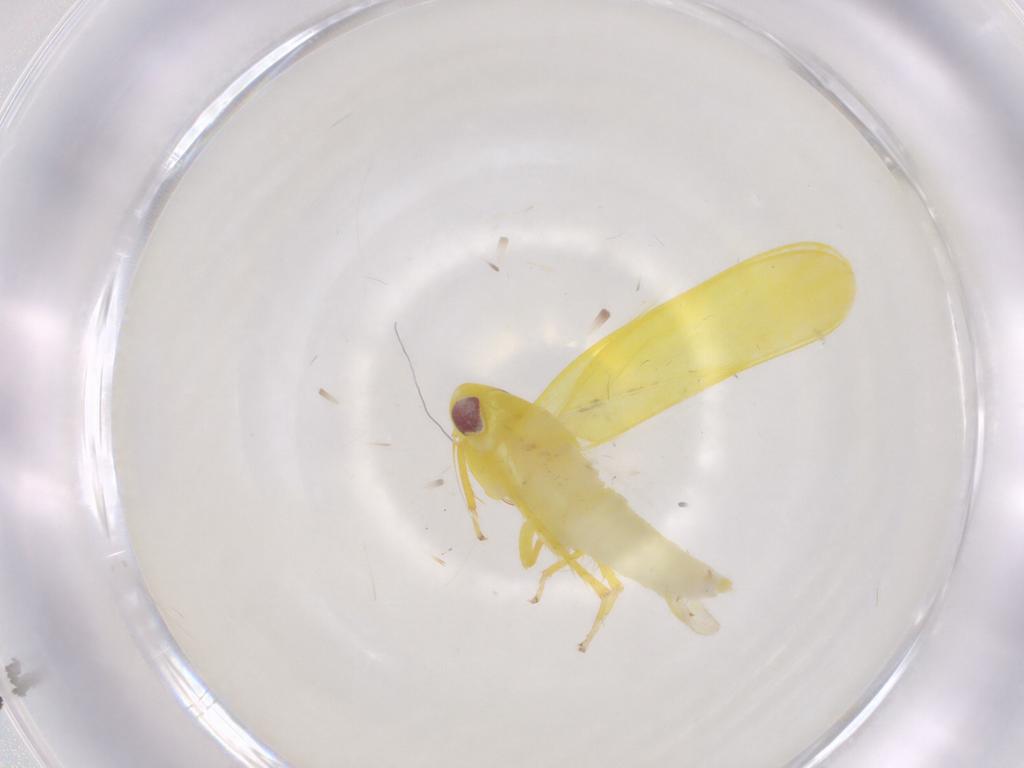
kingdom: Animalia
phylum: Arthropoda
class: Insecta
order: Hemiptera
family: Cicadellidae
